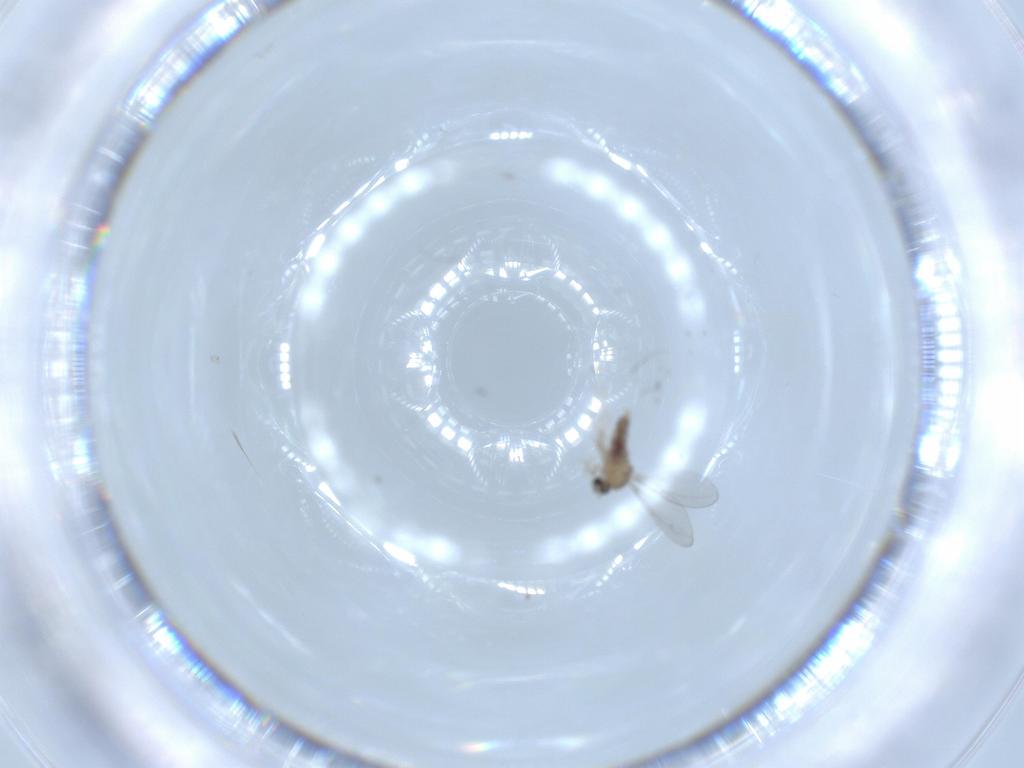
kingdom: Animalia
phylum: Arthropoda
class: Insecta
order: Diptera
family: Cecidomyiidae
